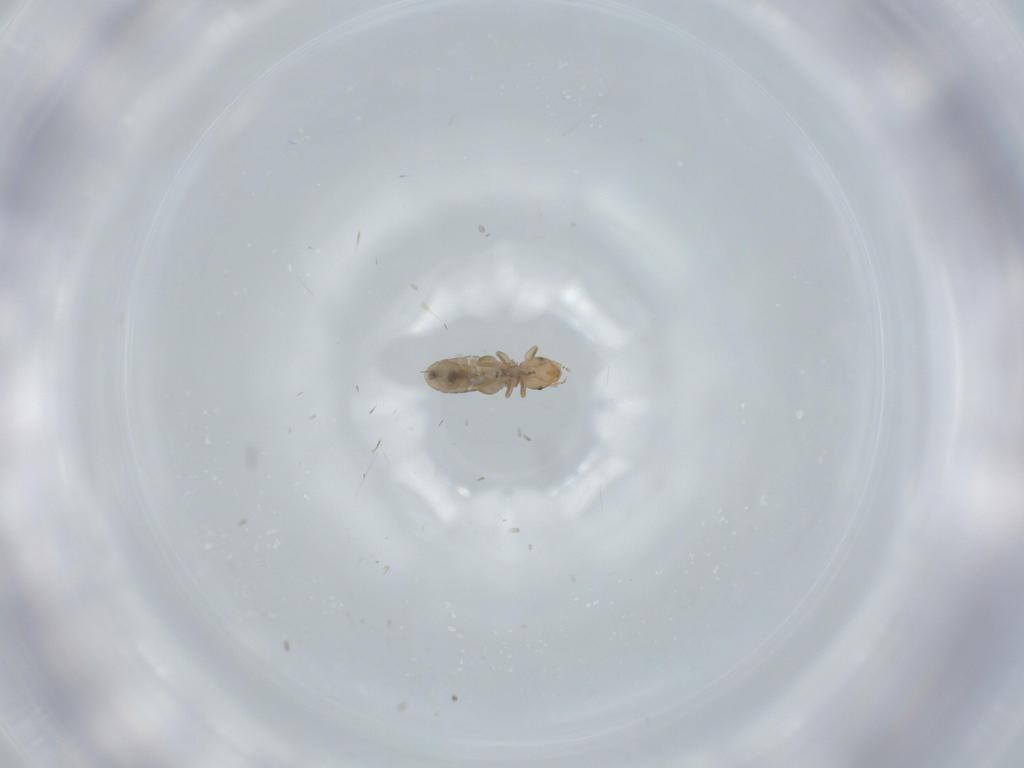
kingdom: Animalia
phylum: Arthropoda
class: Insecta
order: Psocodea
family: Liposcelididae
